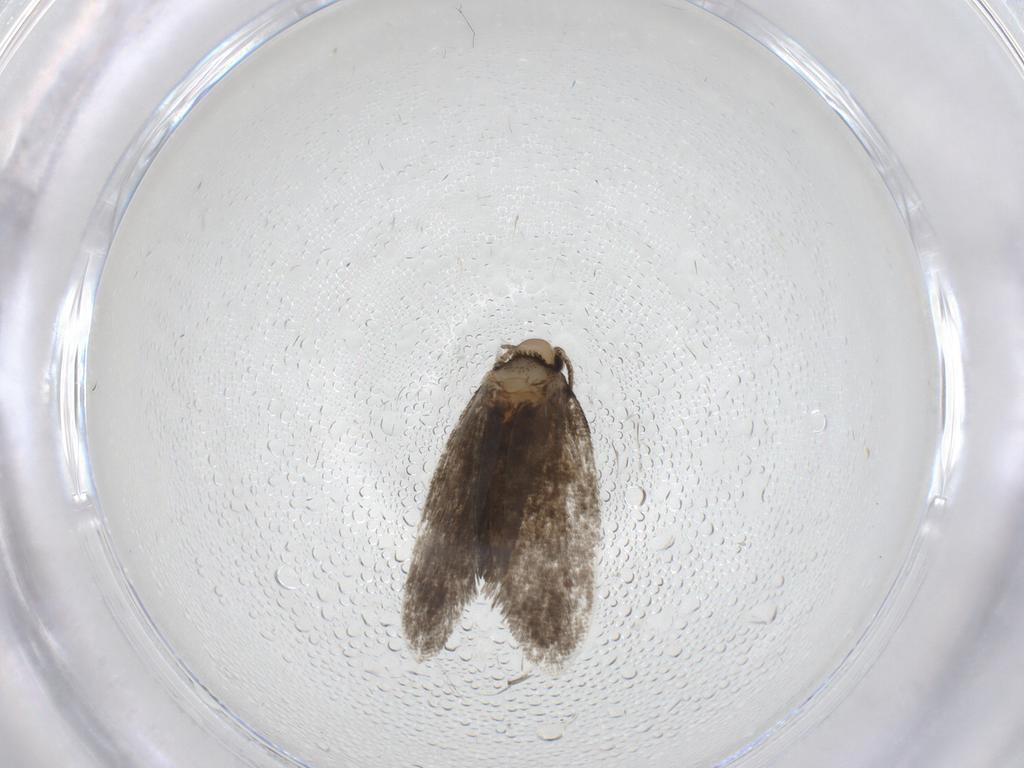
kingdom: Animalia
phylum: Arthropoda
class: Insecta
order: Lepidoptera
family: Psychidae
